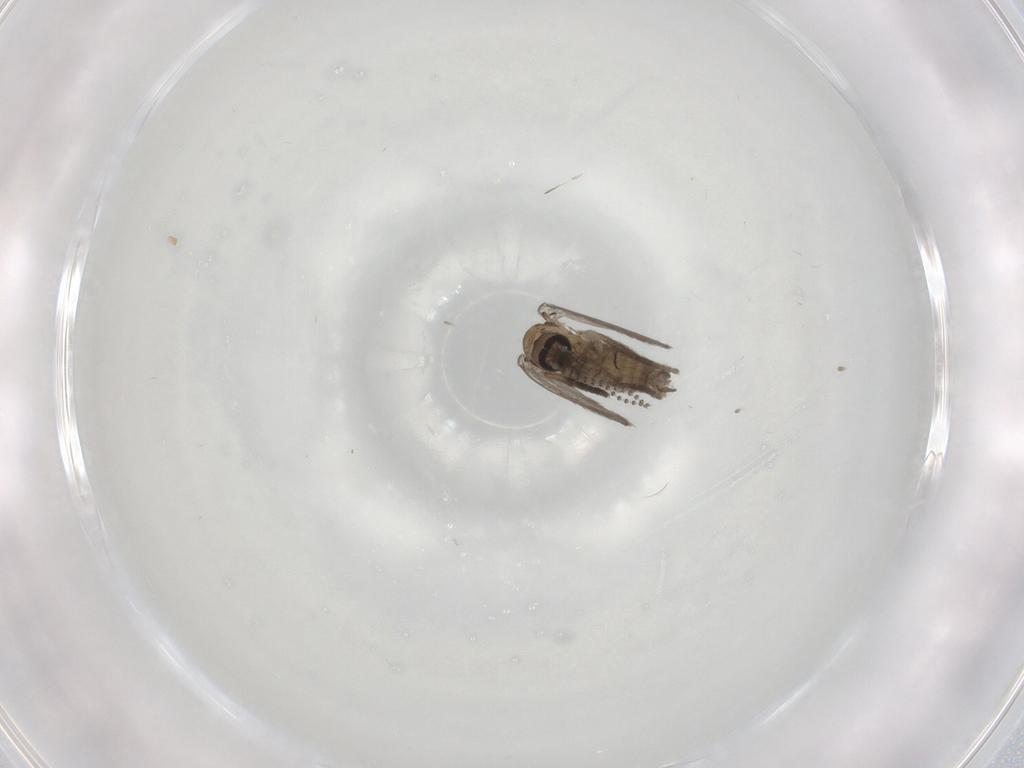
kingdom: Animalia
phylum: Arthropoda
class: Insecta
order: Diptera
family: Psychodidae
